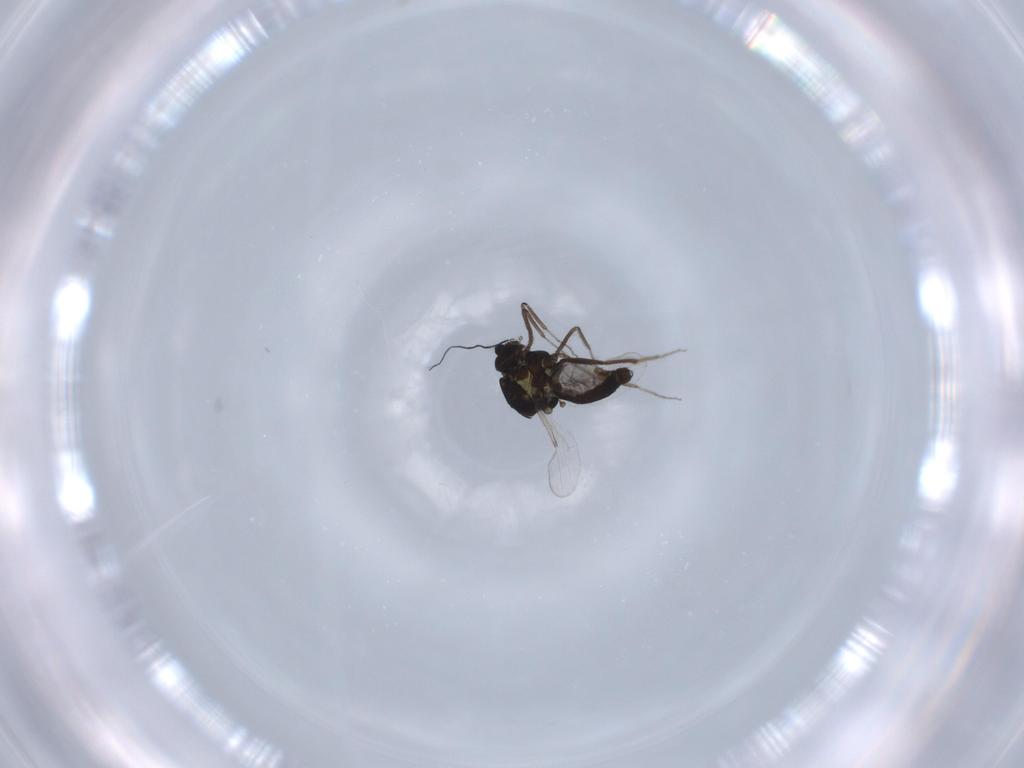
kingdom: Animalia
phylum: Arthropoda
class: Insecta
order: Diptera
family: Ceratopogonidae
